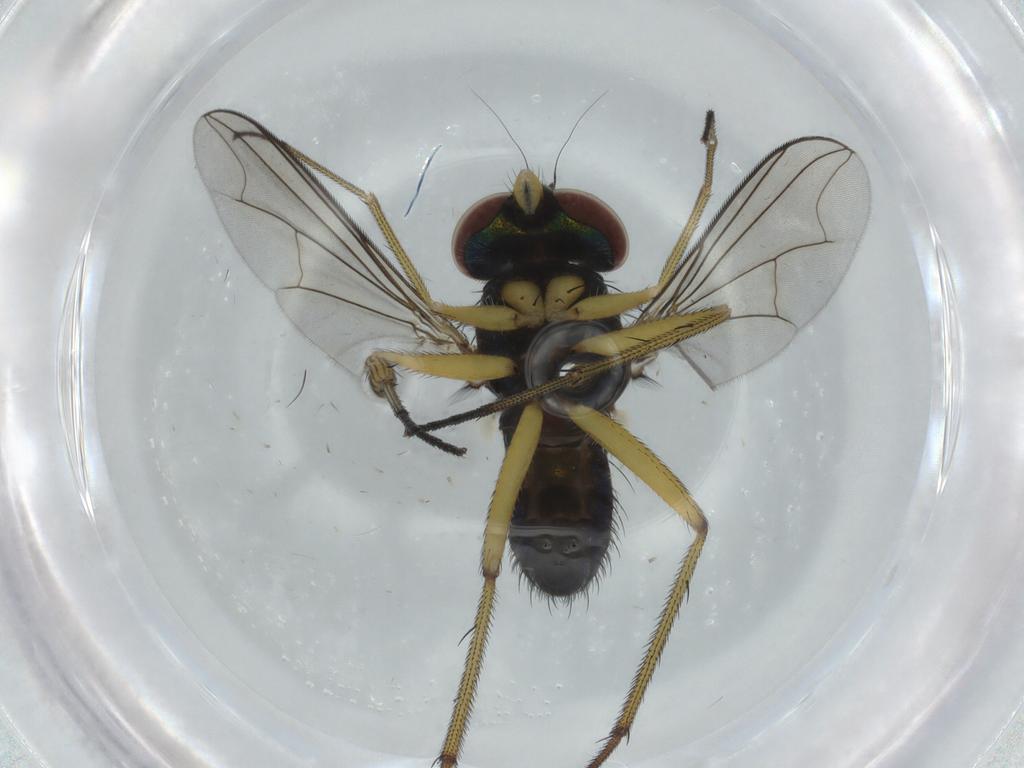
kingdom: Animalia
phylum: Arthropoda
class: Insecta
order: Diptera
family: Dolichopodidae
